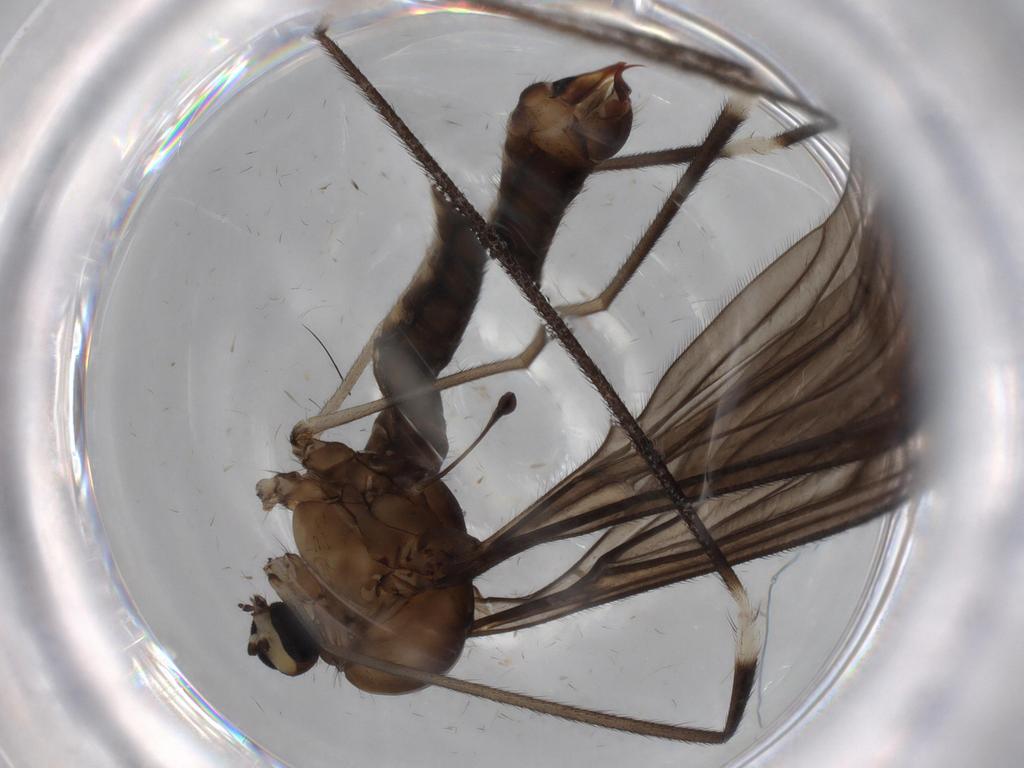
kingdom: Animalia
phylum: Arthropoda
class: Insecta
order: Diptera
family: Limoniidae
